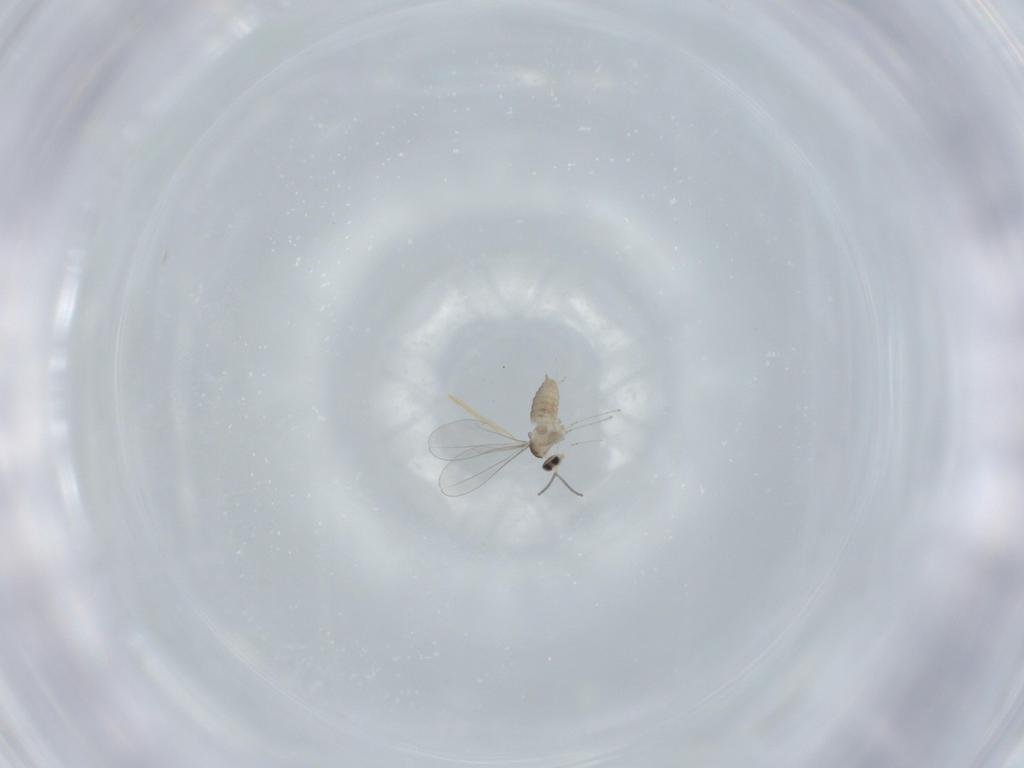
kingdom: Animalia
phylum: Arthropoda
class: Insecta
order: Diptera
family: Cecidomyiidae
